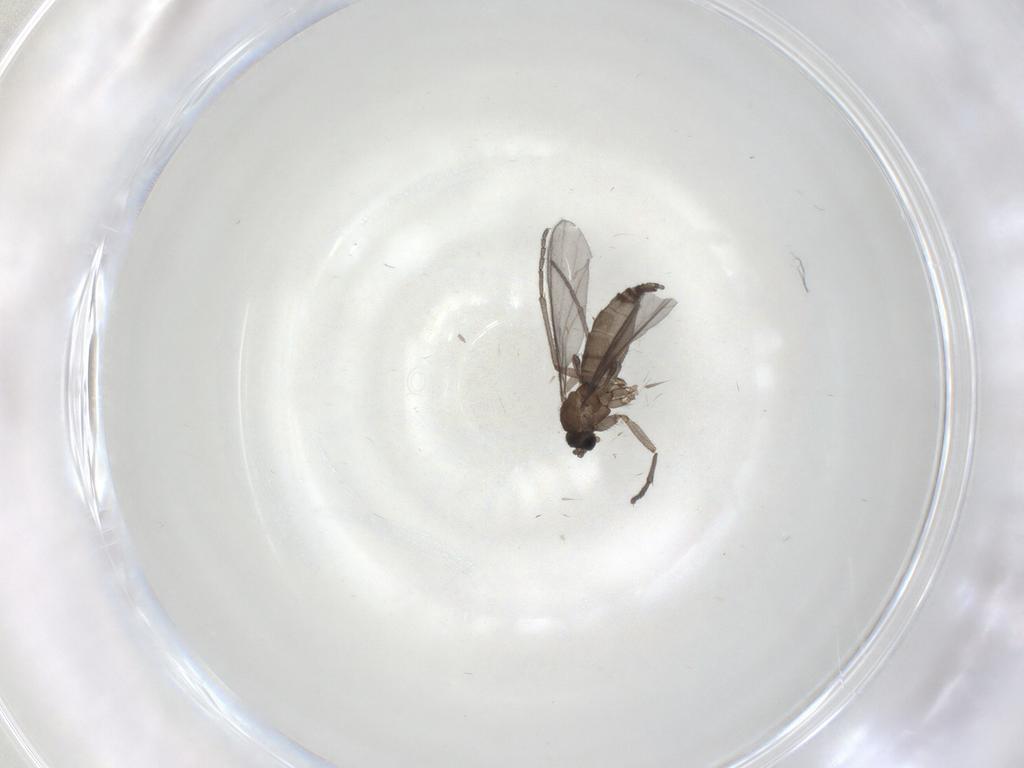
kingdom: Animalia
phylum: Arthropoda
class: Insecta
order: Diptera
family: Sciaridae
